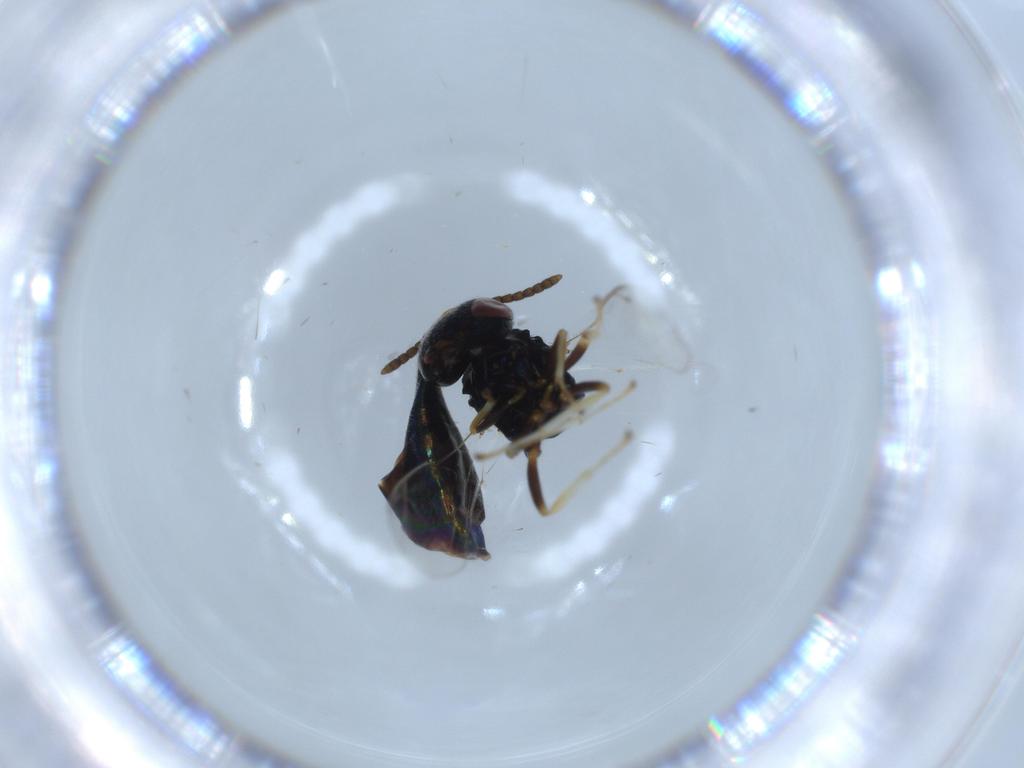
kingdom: Animalia
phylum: Arthropoda
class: Insecta
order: Hymenoptera
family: Pteromalidae
